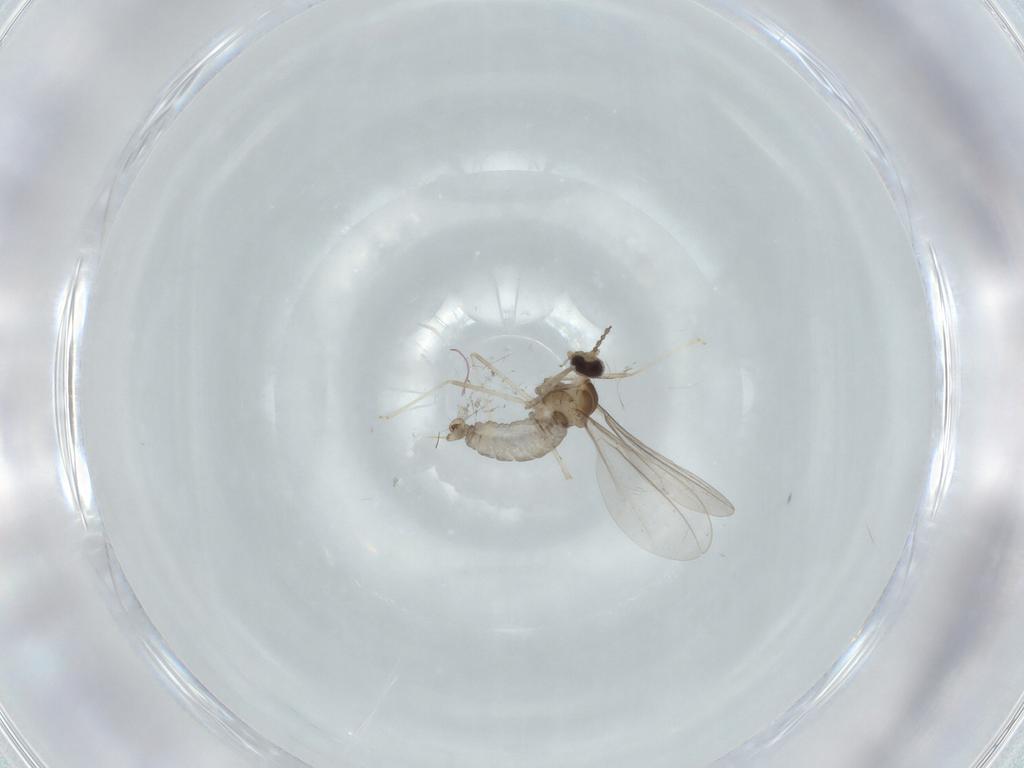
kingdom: Animalia
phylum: Arthropoda
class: Insecta
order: Diptera
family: Cecidomyiidae
